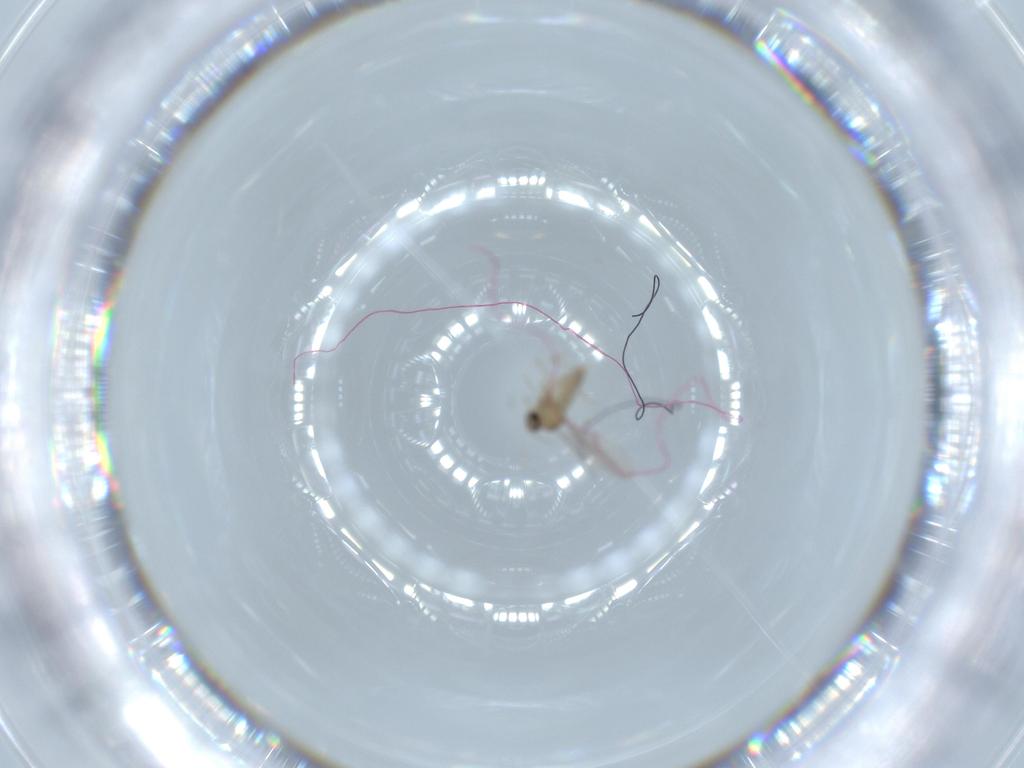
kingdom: Animalia
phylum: Arthropoda
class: Insecta
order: Diptera
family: Cecidomyiidae
